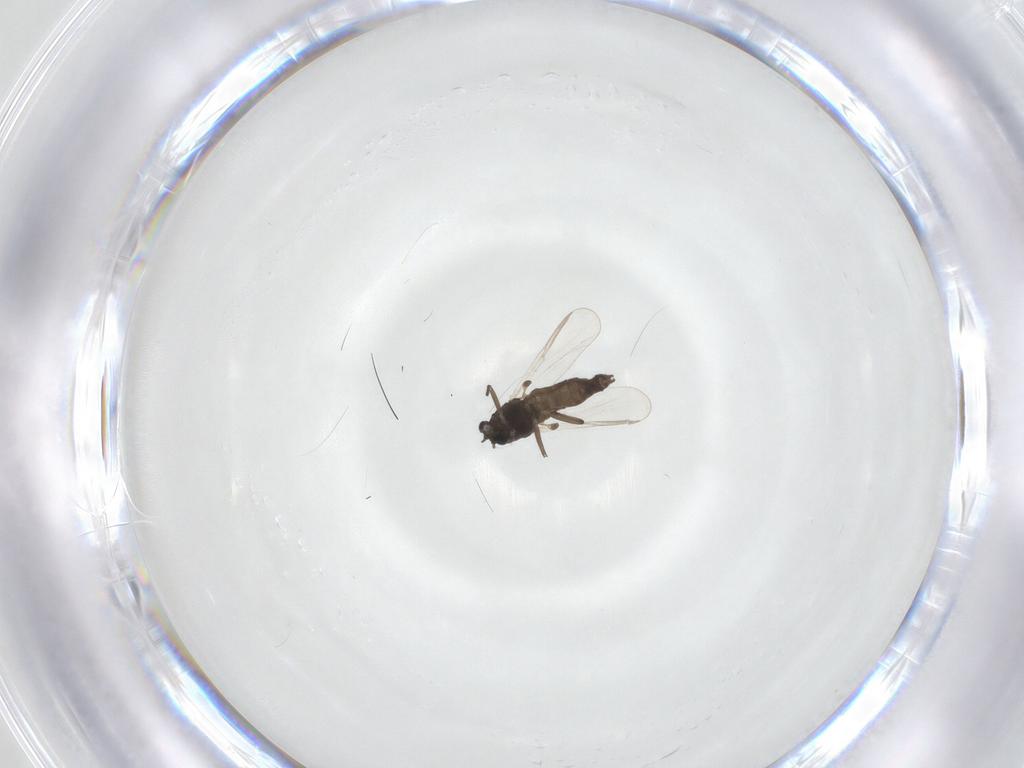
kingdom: Animalia
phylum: Arthropoda
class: Insecta
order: Diptera
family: Chironomidae
